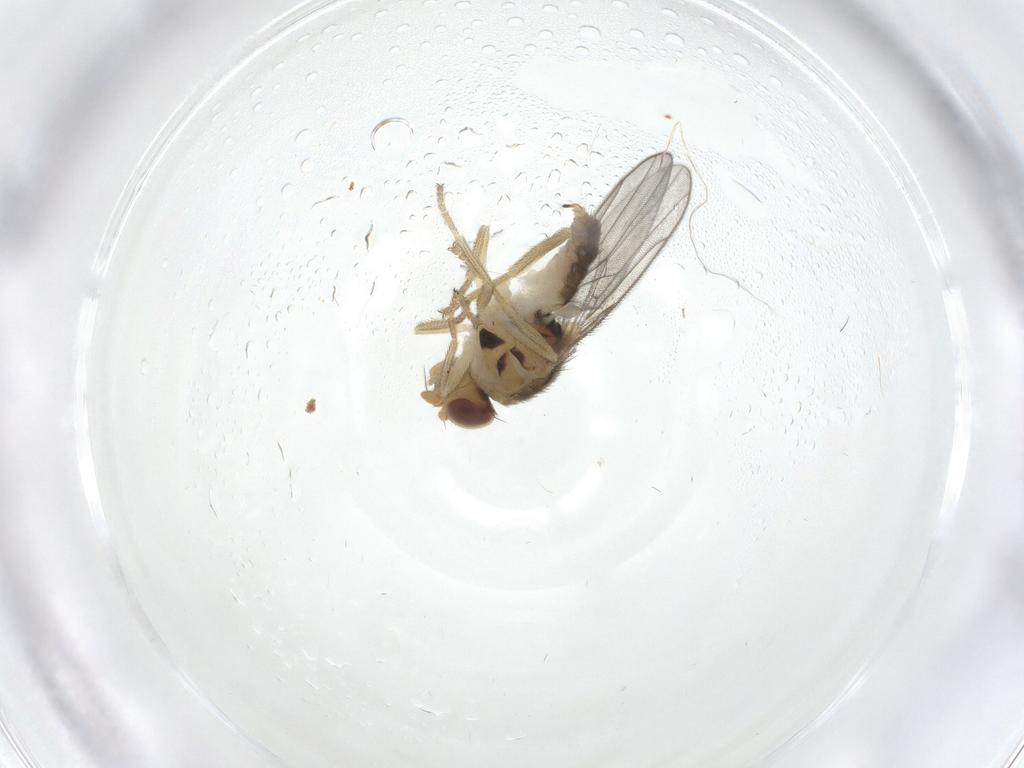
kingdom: Animalia
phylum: Arthropoda
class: Insecta
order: Diptera
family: Chloropidae
